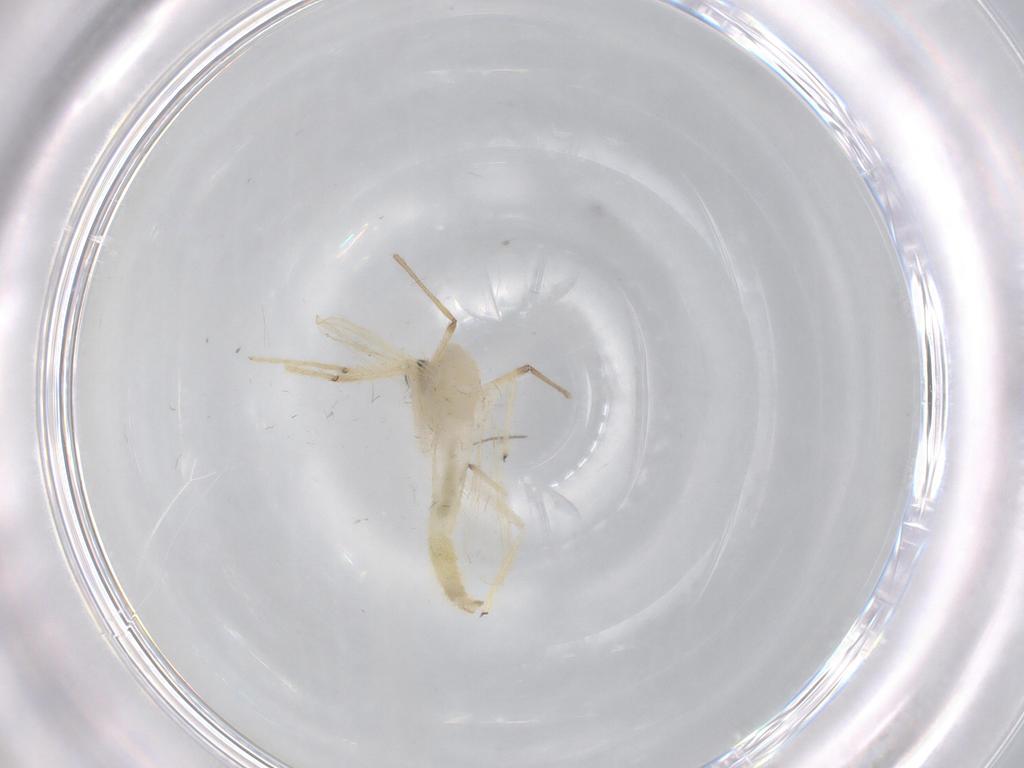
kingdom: Animalia
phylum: Arthropoda
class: Insecta
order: Diptera
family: Chironomidae
